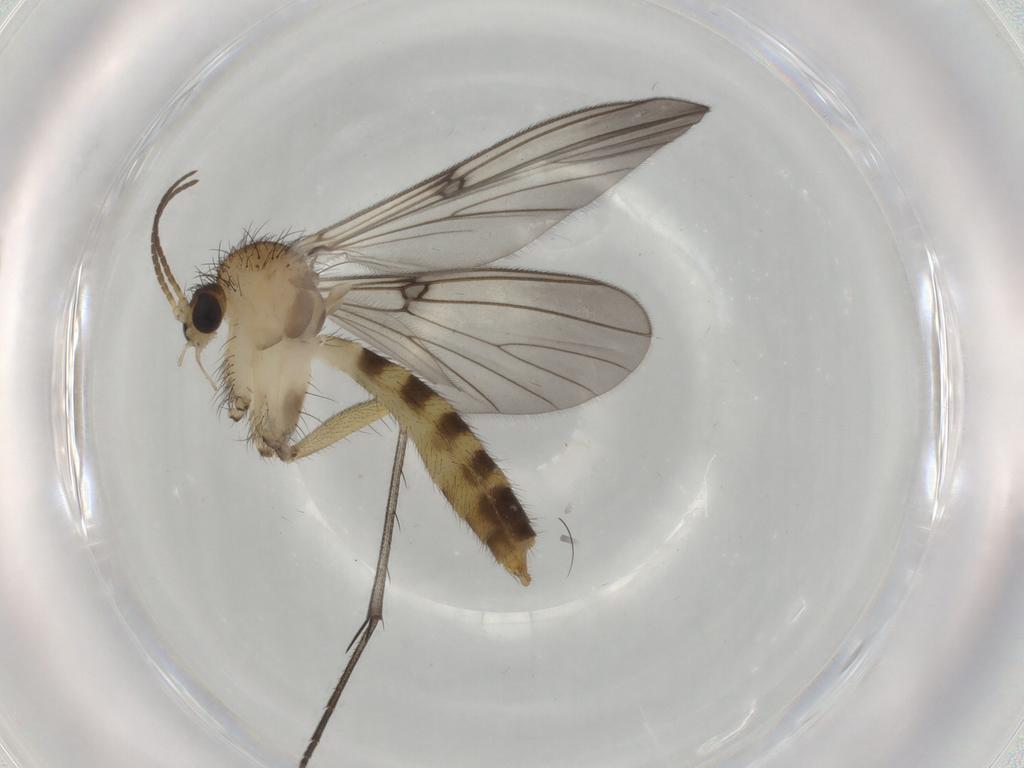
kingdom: Animalia
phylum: Arthropoda
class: Insecta
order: Diptera
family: Mycetophilidae
